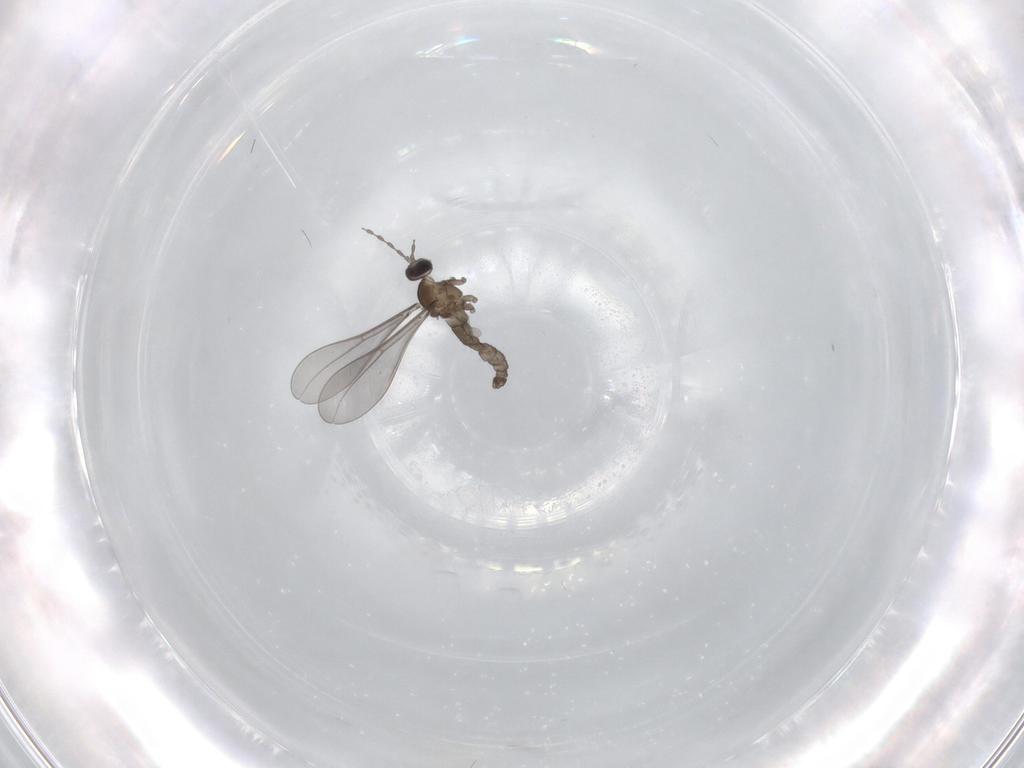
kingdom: Animalia
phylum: Arthropoda
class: Insecta
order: Diptera
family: Cecidomyiidae
